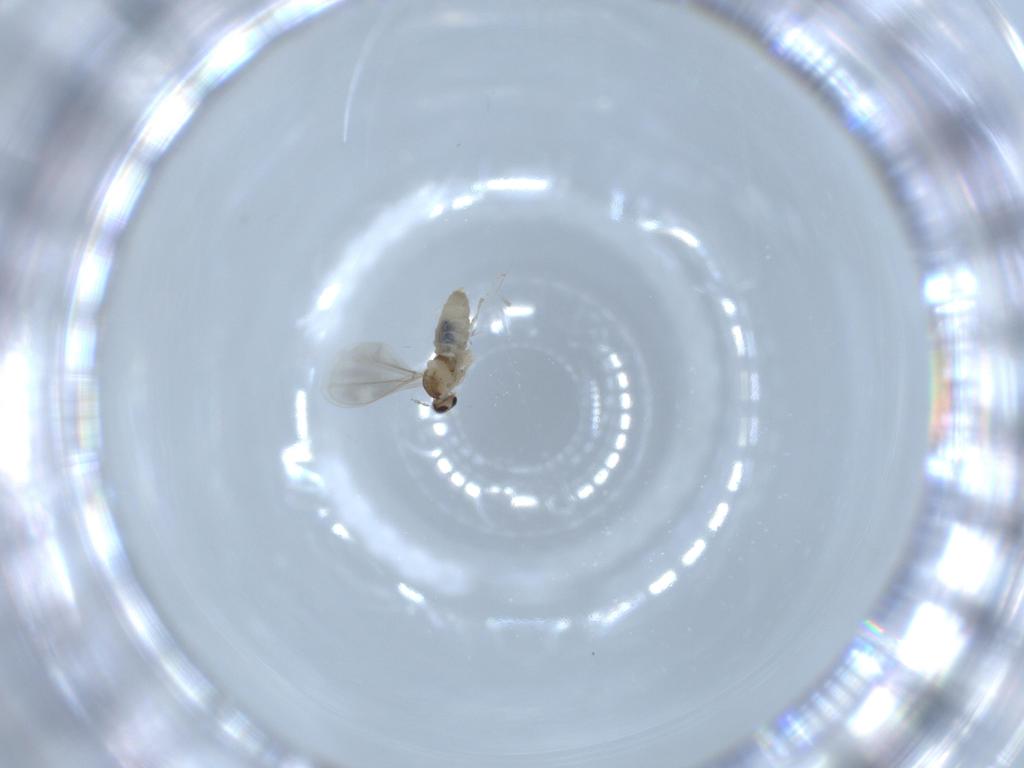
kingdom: Animalia
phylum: Arthropoda
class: Insecta
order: Diptera
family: Cecidomyiidae
